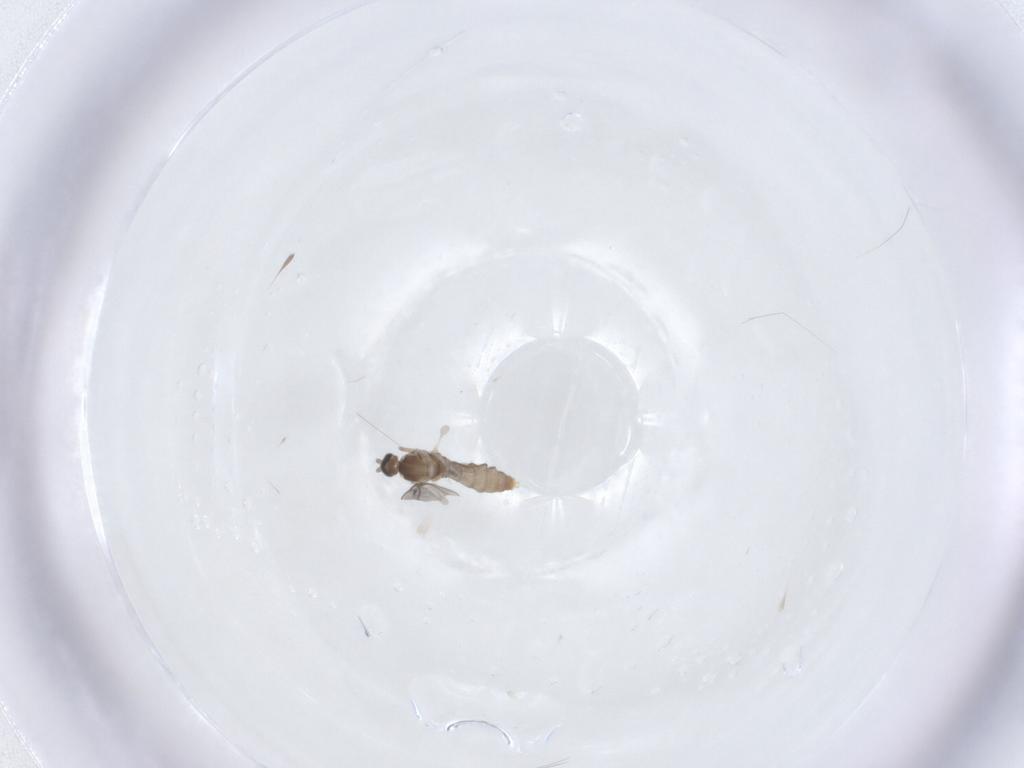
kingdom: Animalia
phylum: Arthropoda
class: Insecta
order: Diptera
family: Cecidomyiidae
